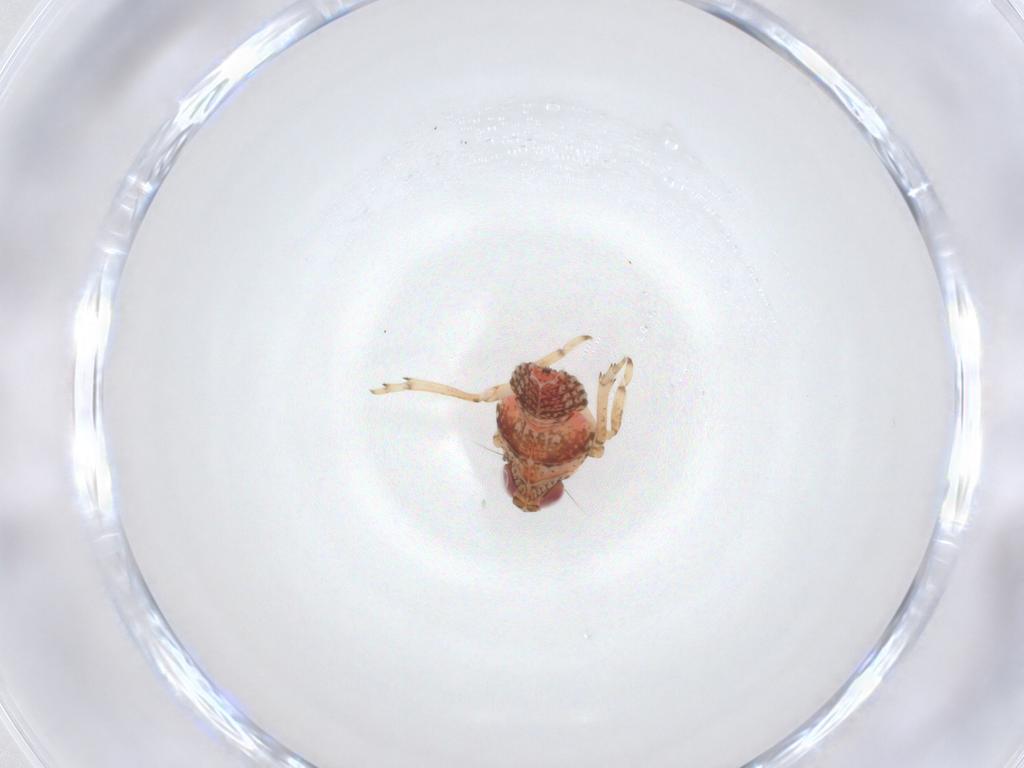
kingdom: Animalia
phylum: Arthropoda
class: Insecta
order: Hemiptera
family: Issidae
